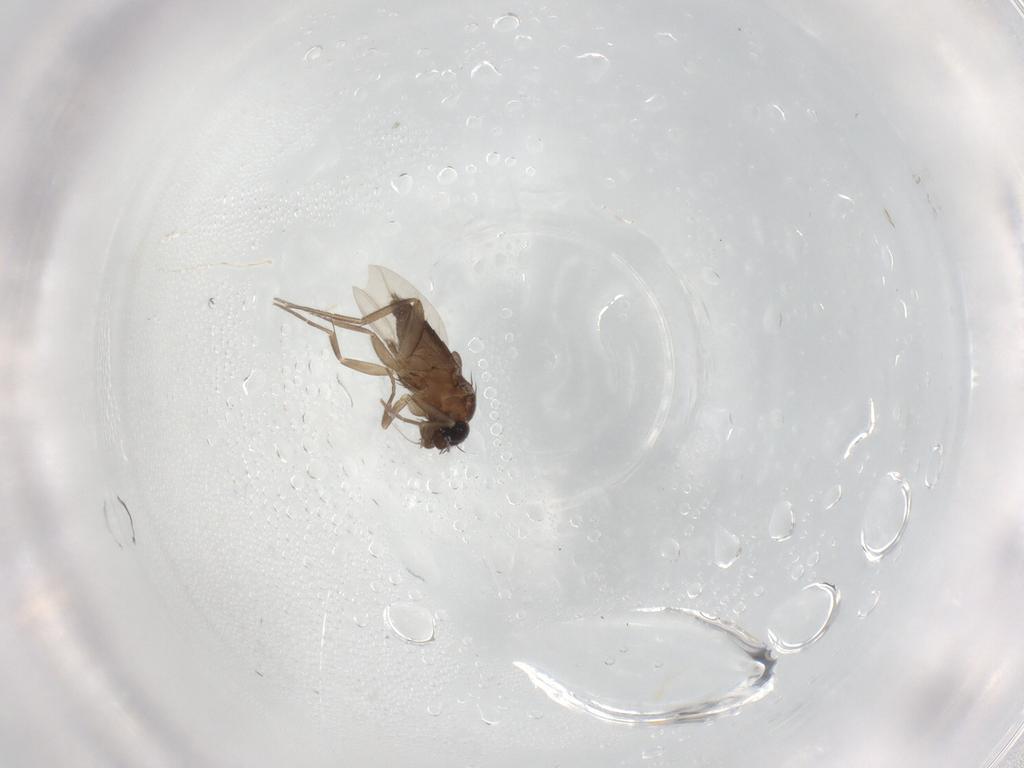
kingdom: Animalia
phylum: Arthropoda
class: Insecta
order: Diptera
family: Phoridae
